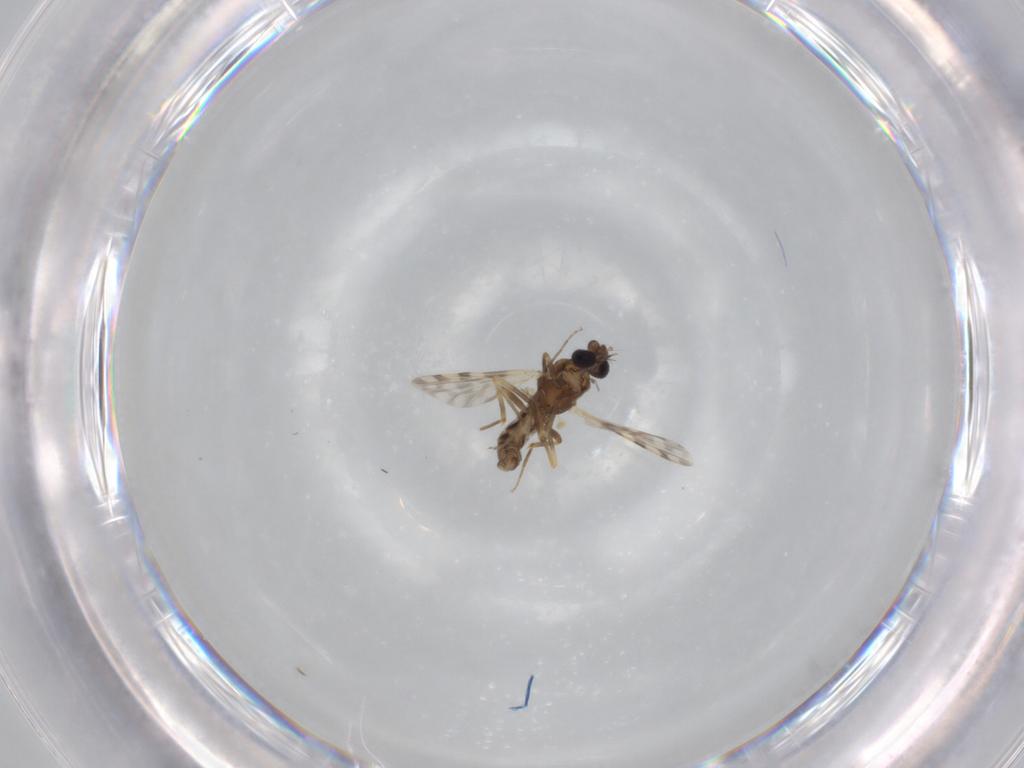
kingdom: Animalia
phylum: Arthropoda
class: Insecta
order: Diptera
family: Ceratopogonidae
